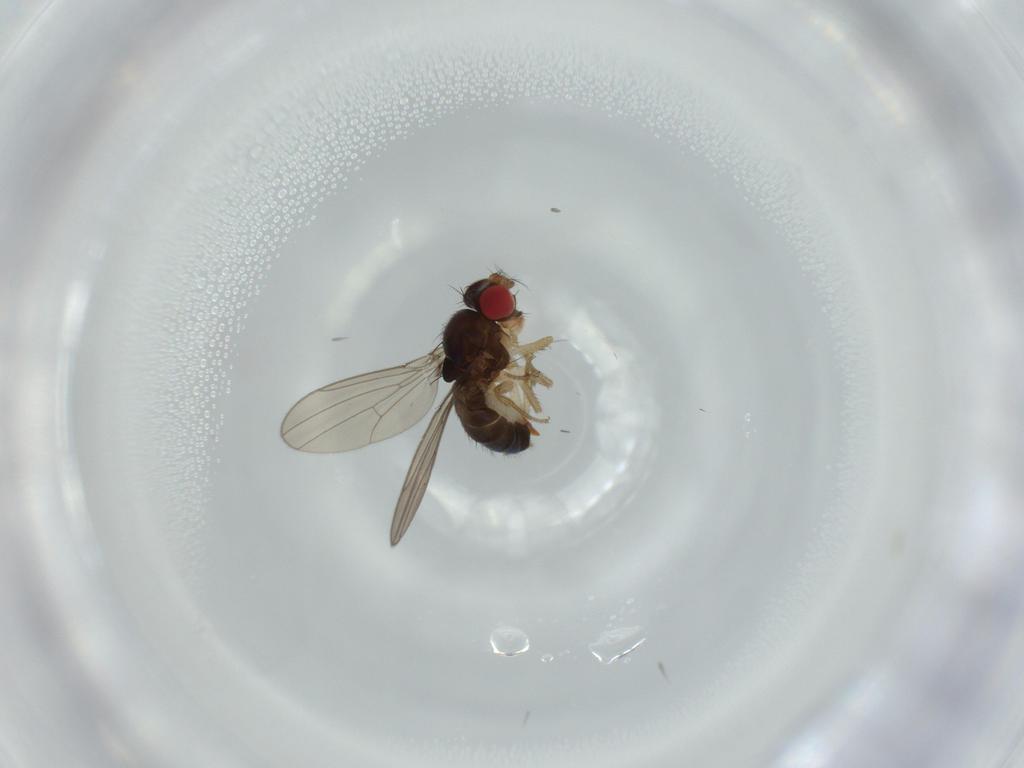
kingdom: Animalia
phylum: Arthropoda
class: Insecta
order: Diptera
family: Drosophilidae
